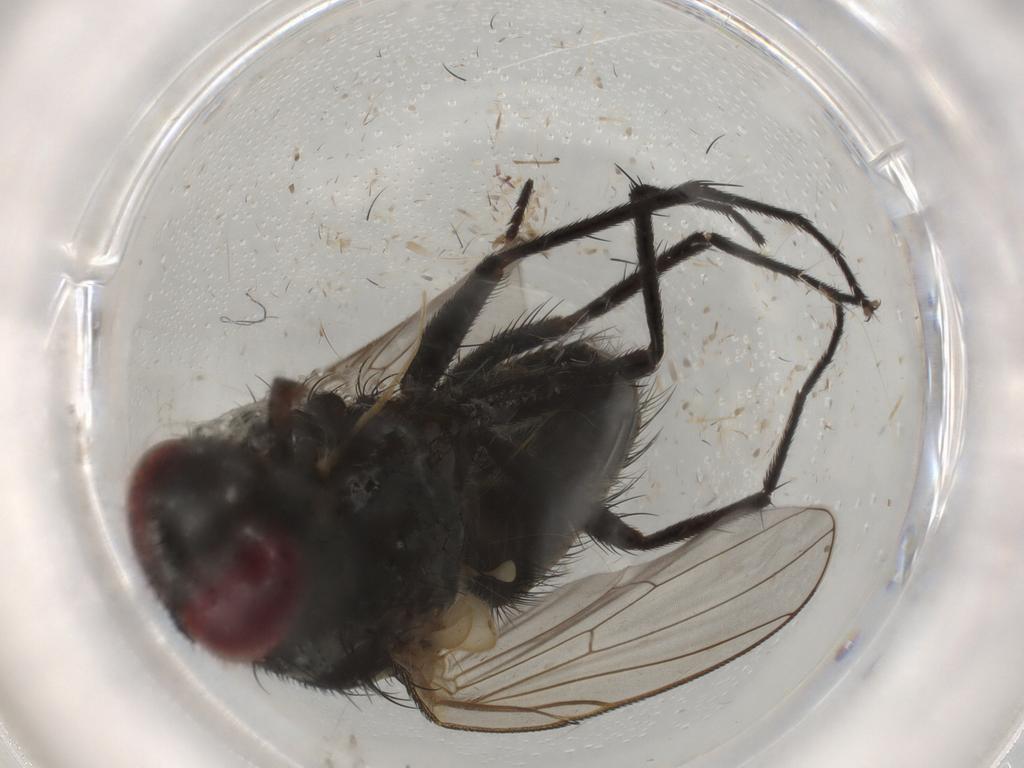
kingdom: Animalia
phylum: Arthropoda
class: Insecta
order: Diptera
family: Chaoboridae
